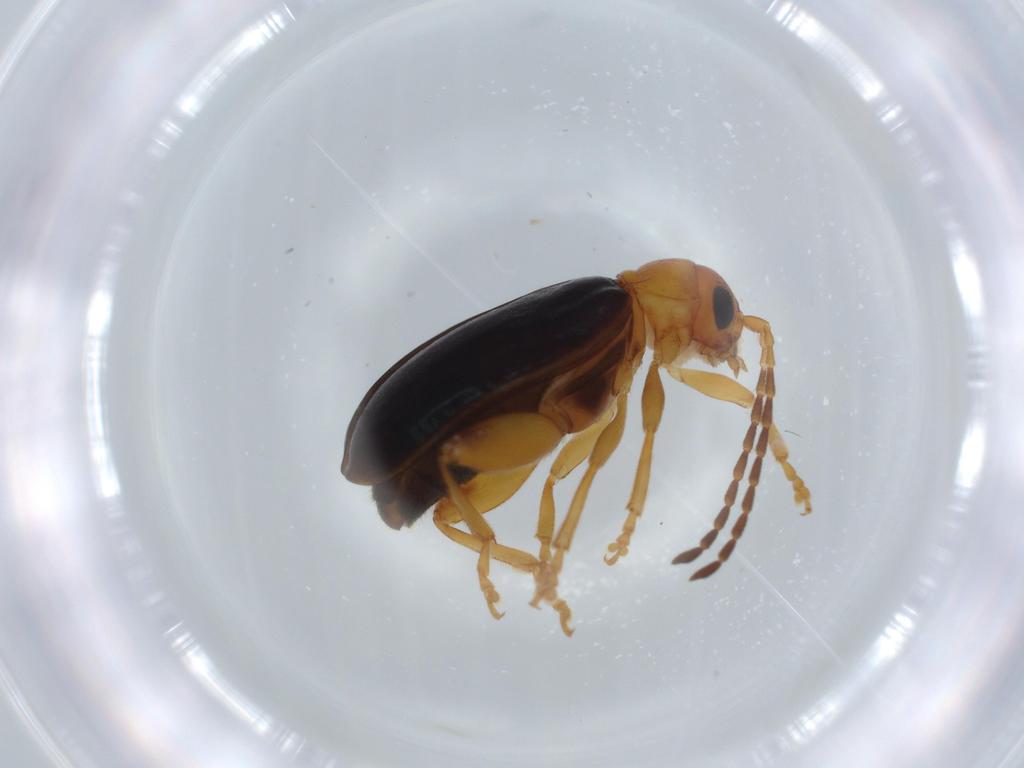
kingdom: Animalia
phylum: Arthropoda
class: Insecta
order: Coleoptera
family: Chrysomelidae
